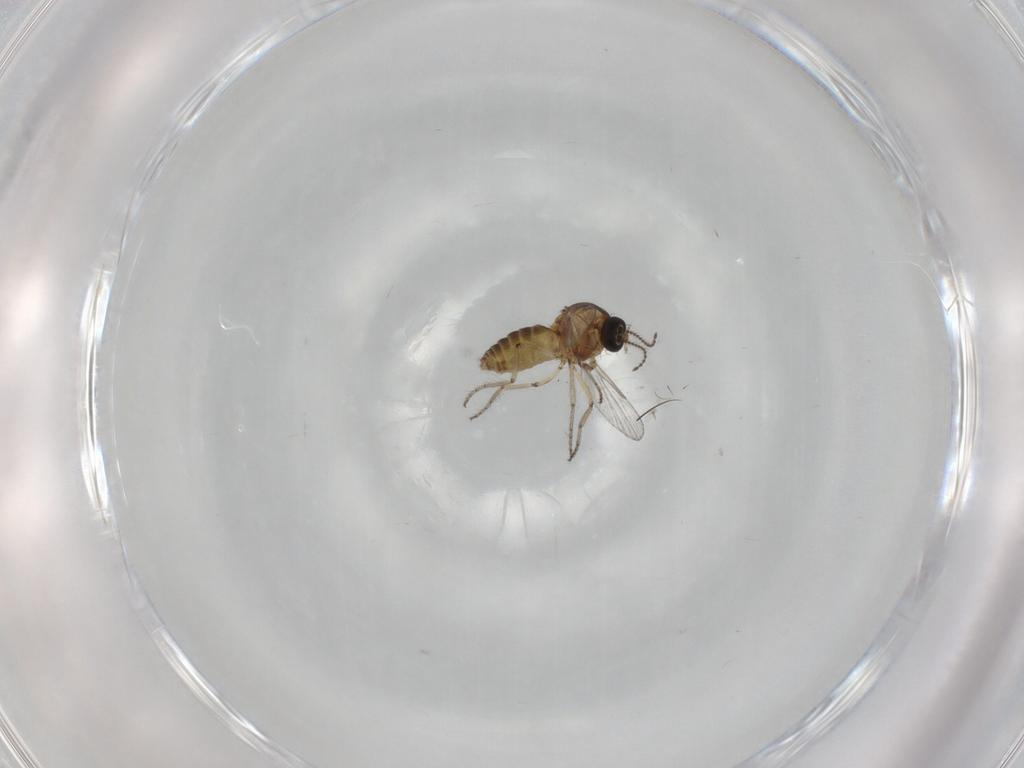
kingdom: Animalia
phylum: Arthropoda
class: Insecta
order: Diptera
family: Ceratopogonidae
